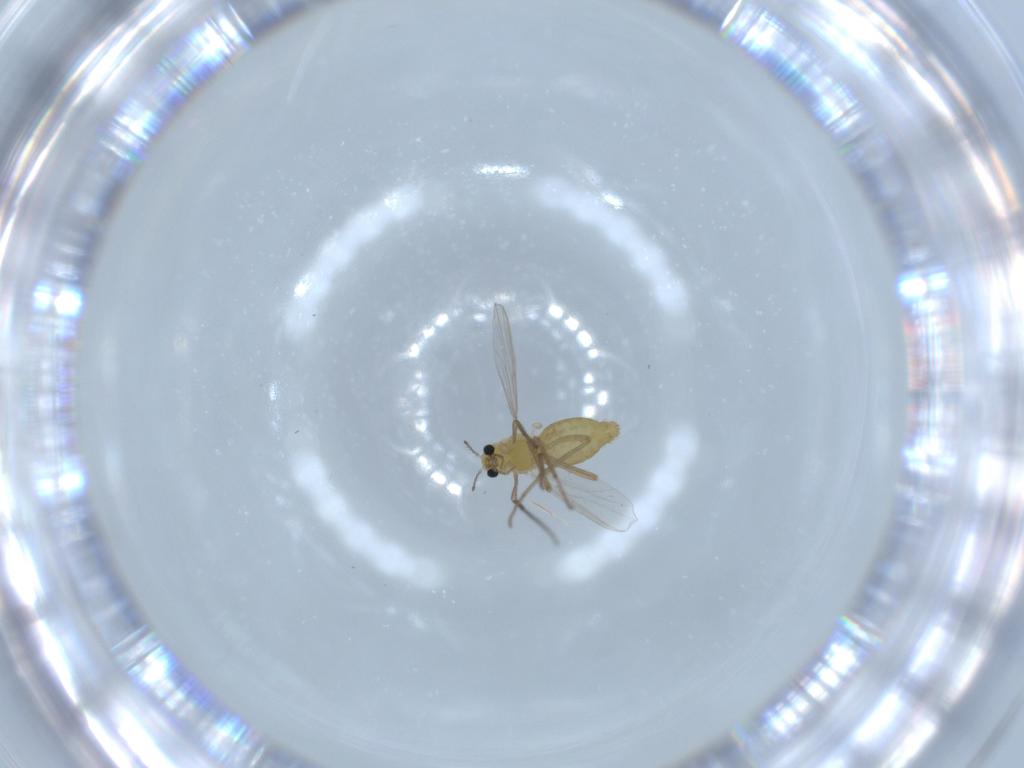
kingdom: Animalia
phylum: Arthropoda
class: Insecta
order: Diptera
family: Chironomidae
